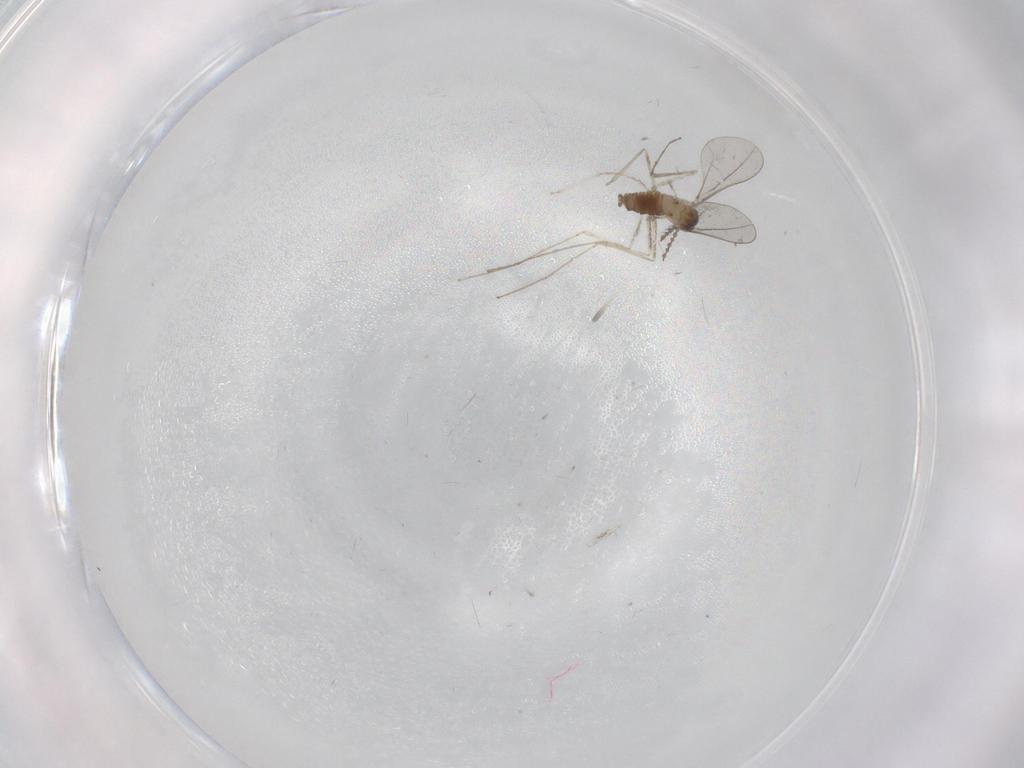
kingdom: Animalia
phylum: Arthropoda
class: Insecta
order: Diptera
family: Cecidomyiidae
